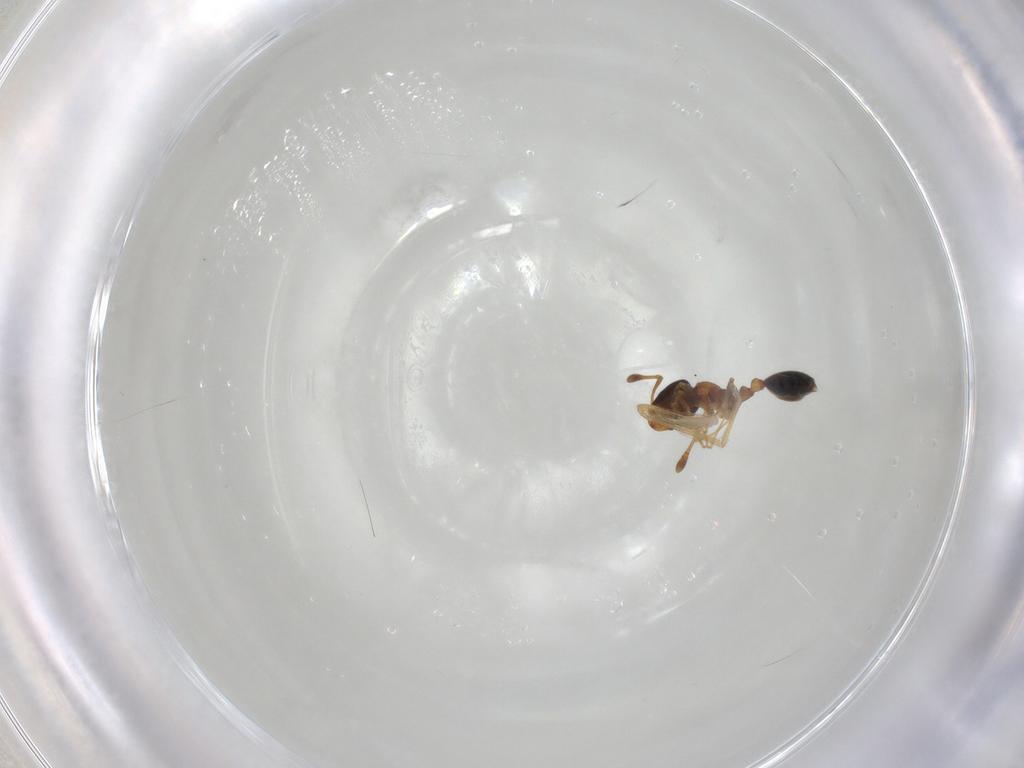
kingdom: Animalia
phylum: Arthropoda
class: Insecta
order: Hymenoptera
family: Formicidae
